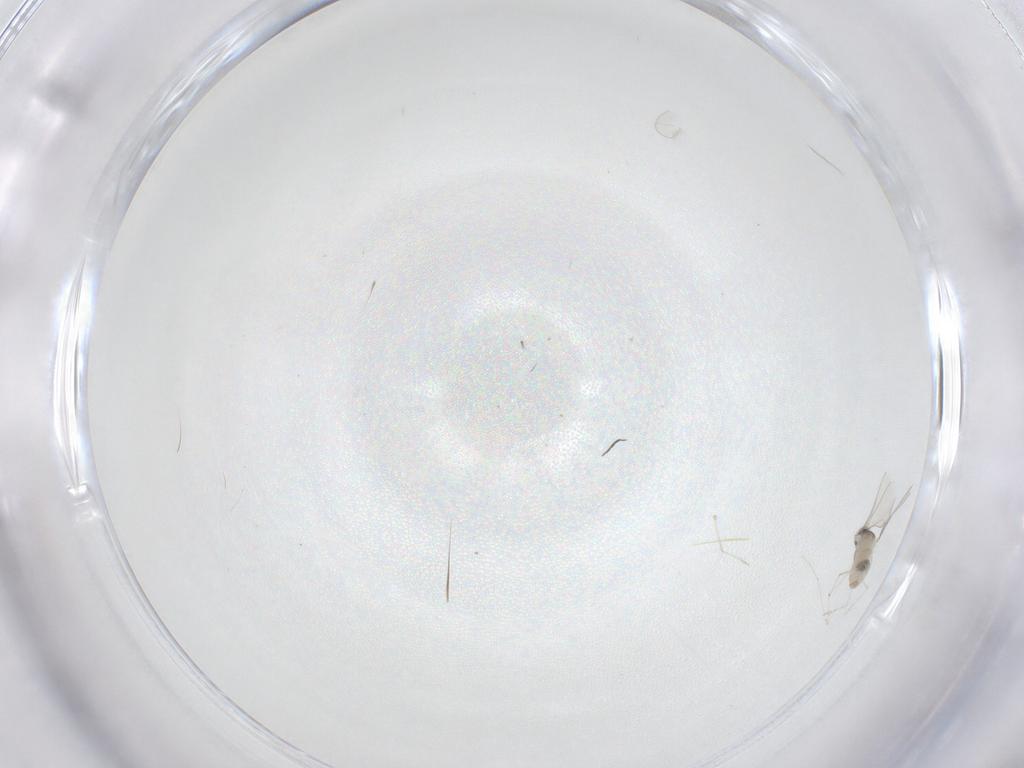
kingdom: Animalia
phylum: Arthropoda
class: Insecta
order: Diptera
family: Cecidomyiidae
